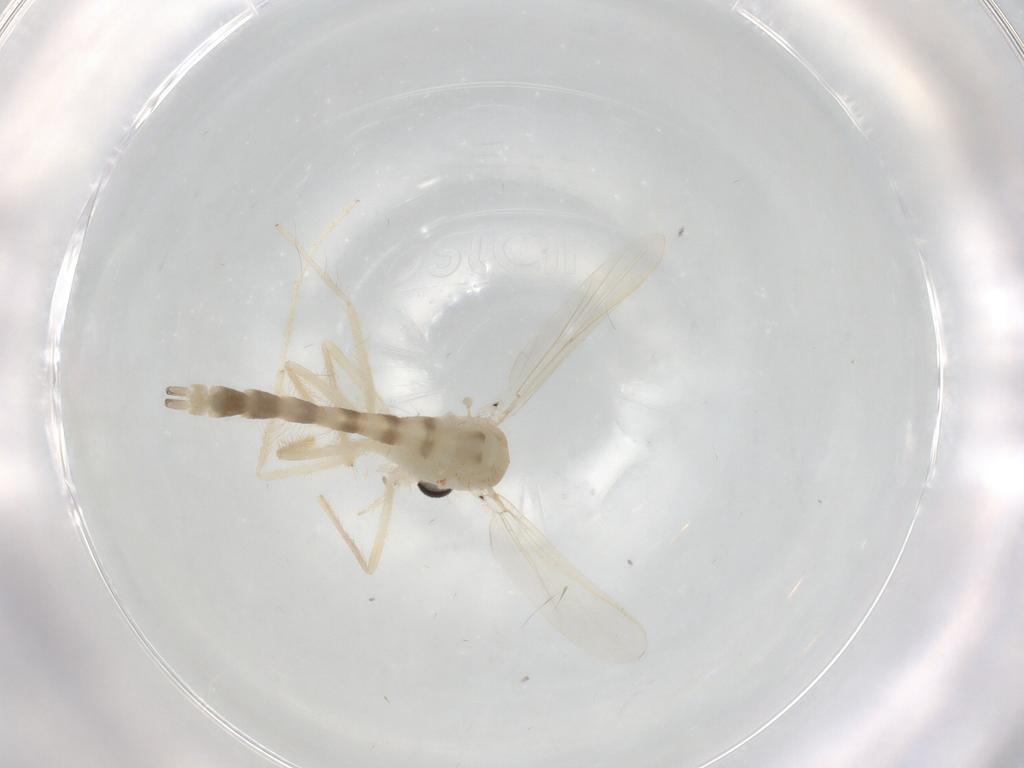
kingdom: Animalia
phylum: Arthropoda
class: Insecta
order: Diptera
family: Chironomidae
